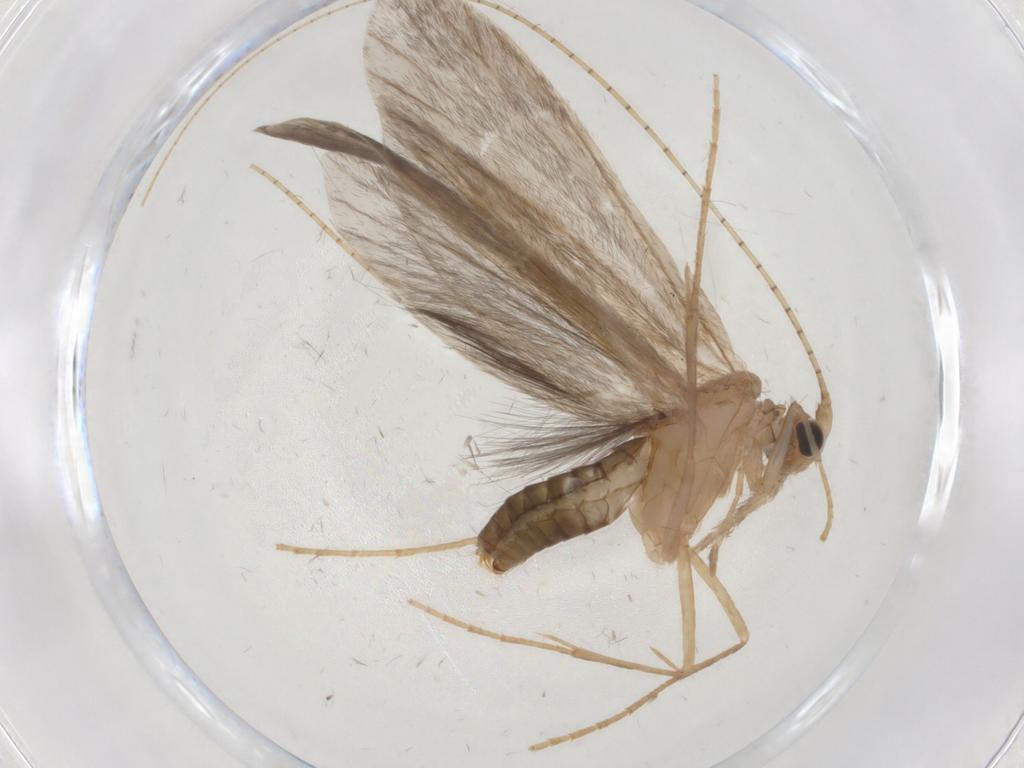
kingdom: Animalia
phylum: Arthropoda
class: Insecta
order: Trichoptera
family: Leptoceridae
